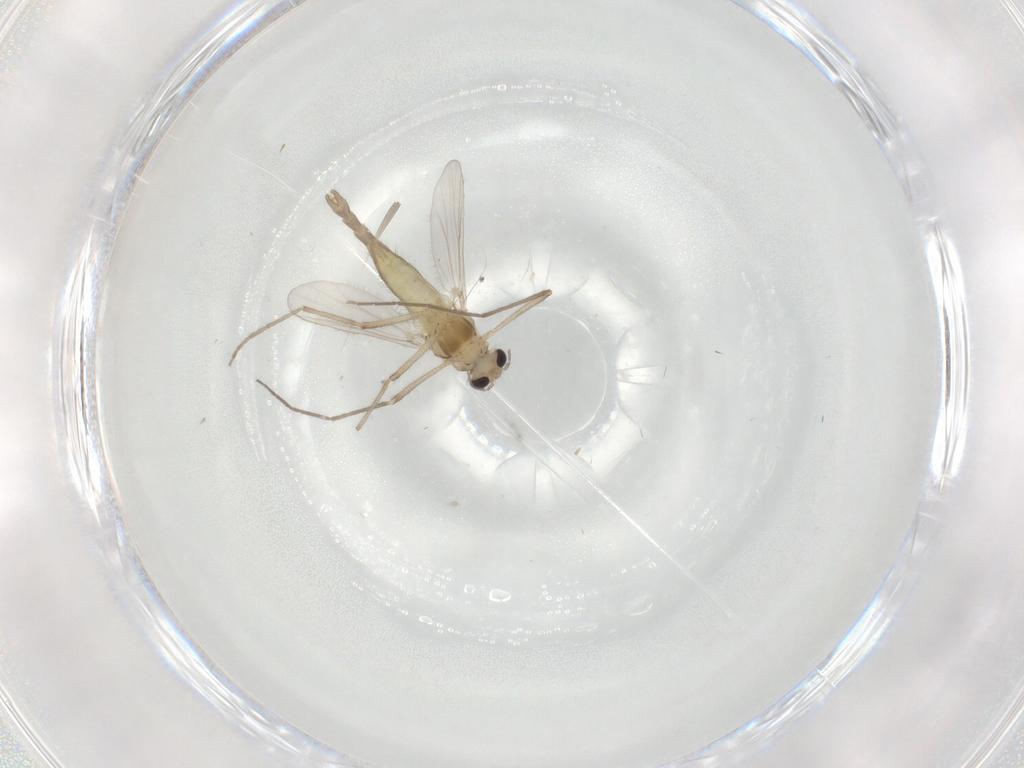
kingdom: Animalia
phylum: Arthropoda
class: Insecta
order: Diptera
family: Chironomidae
